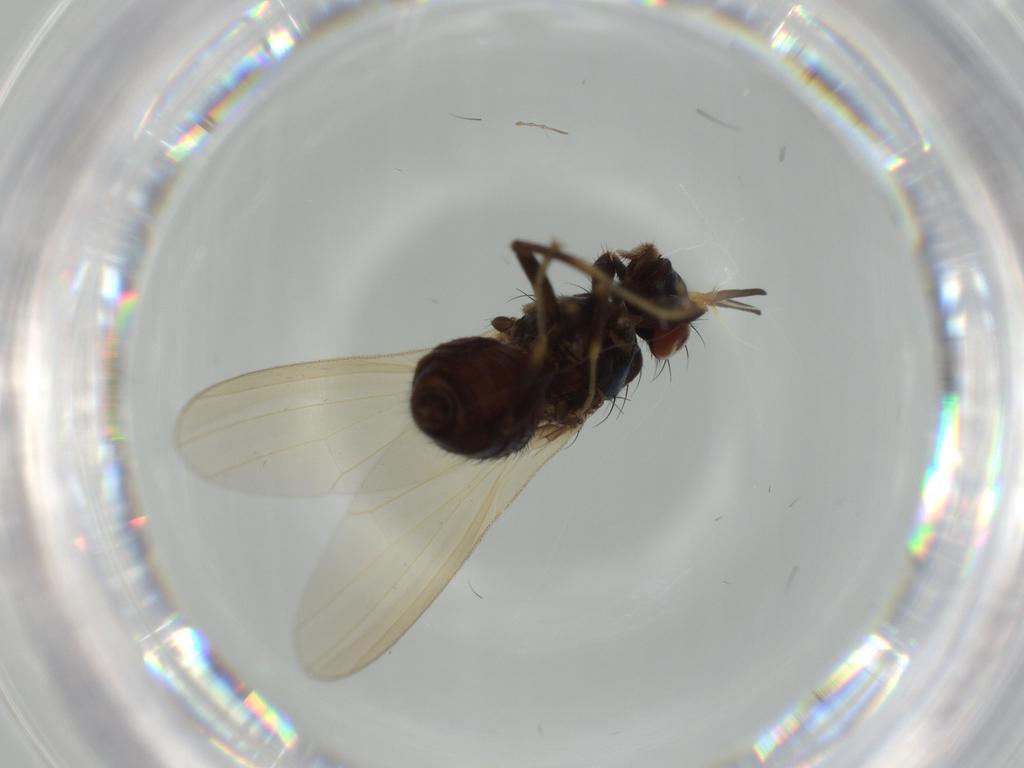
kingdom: Animalia
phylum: Arthropoda
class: Insecta
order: Diptera
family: Cecidomyiidae
